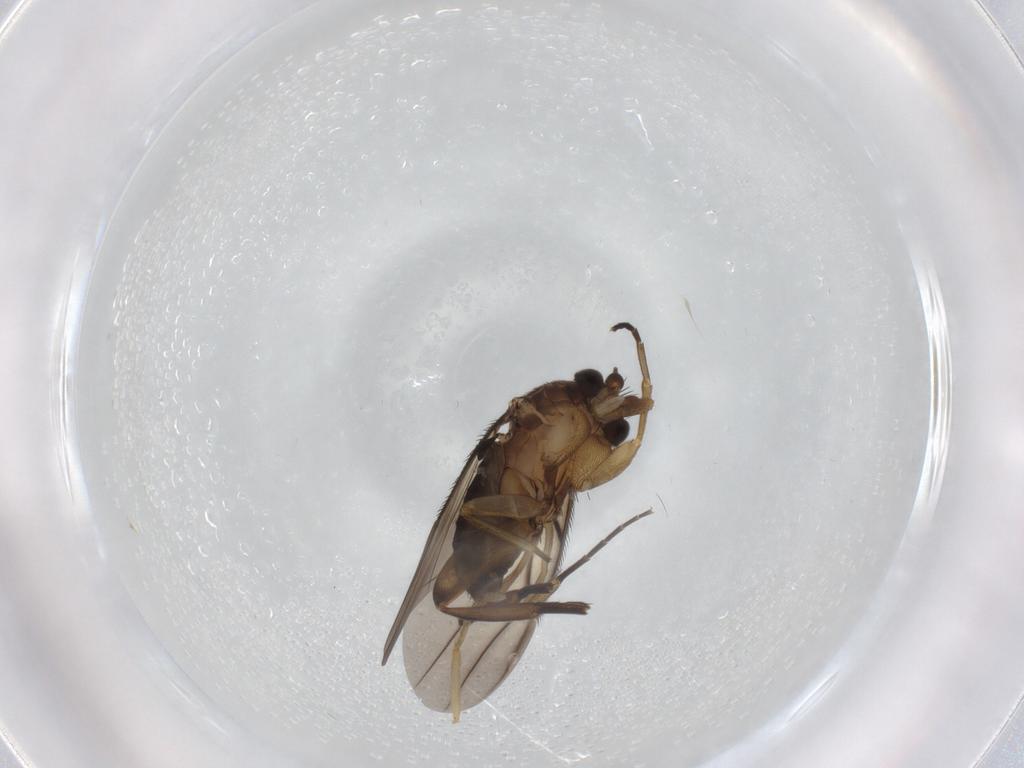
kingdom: Animalia
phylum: Arthropoda
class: Insecta
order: Diptera
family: Phoridae
